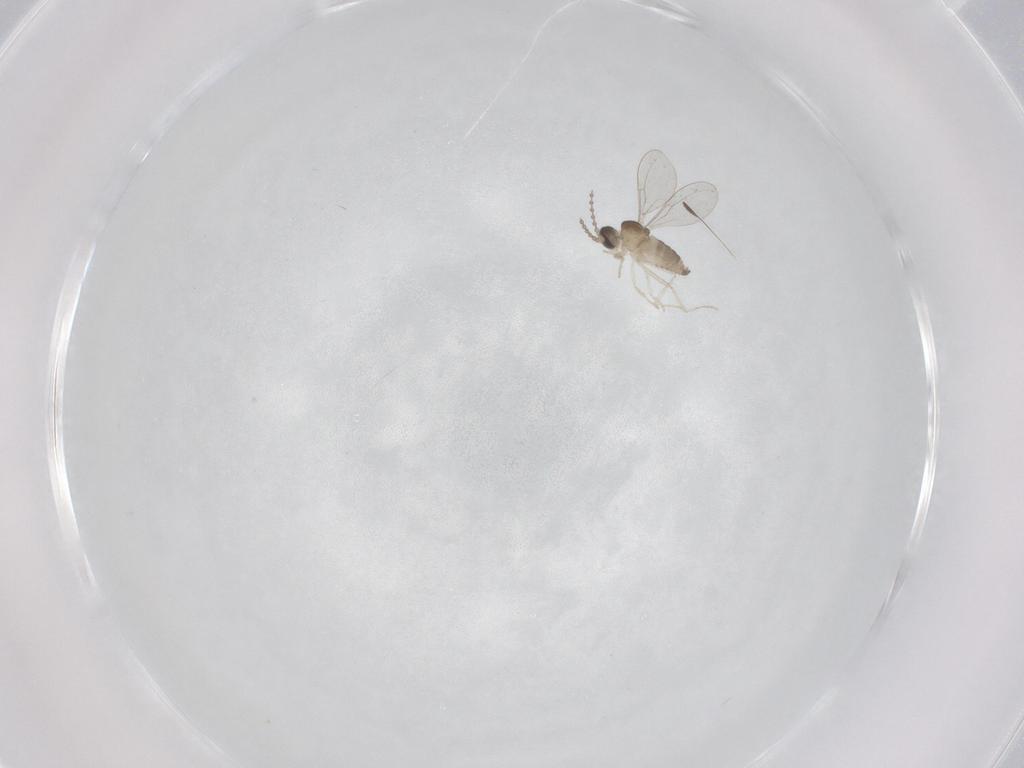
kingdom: Animalia
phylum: Arthropoda
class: Insecta
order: Diptera
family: Cecidomyiidae
